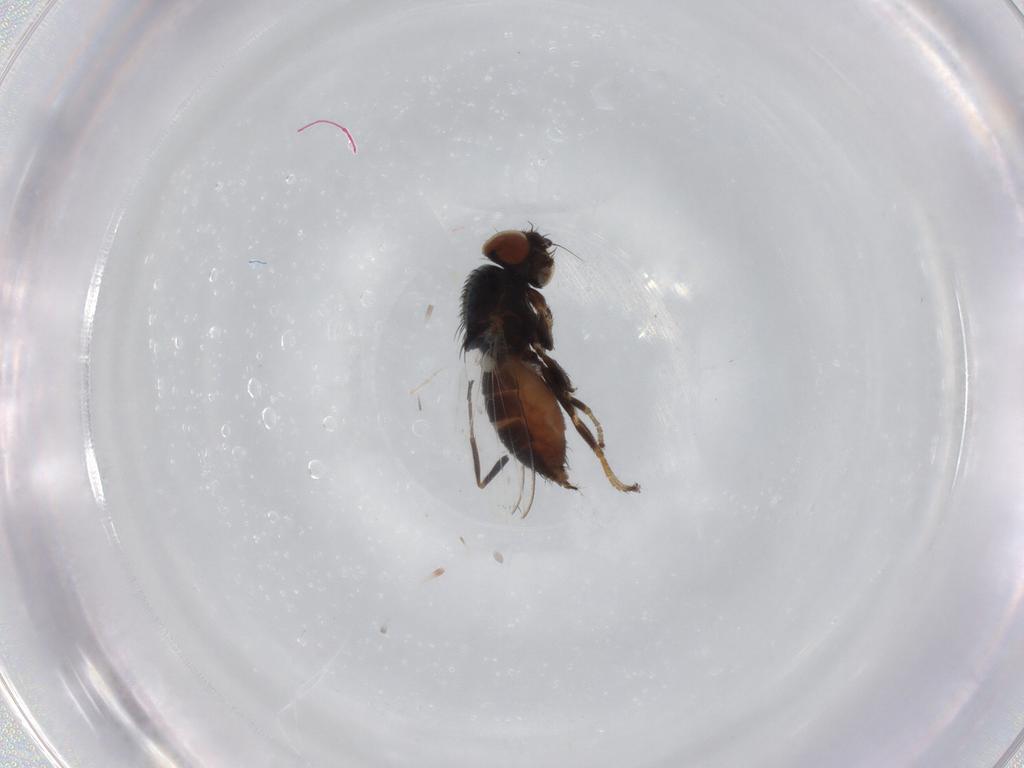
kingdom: Animalia
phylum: Arthropoda
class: Insecta
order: Diptera
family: Milichiidae
